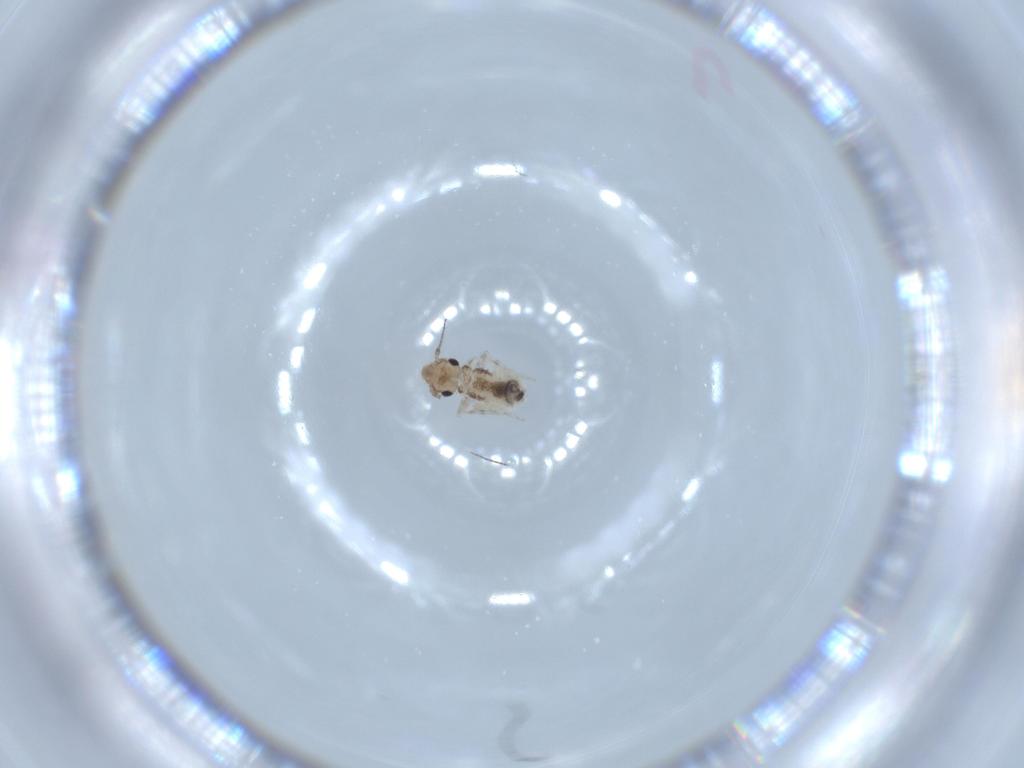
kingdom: Animalia
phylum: Arthropoda
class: Insecta
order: Psocodea
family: Lepidopsocidae
